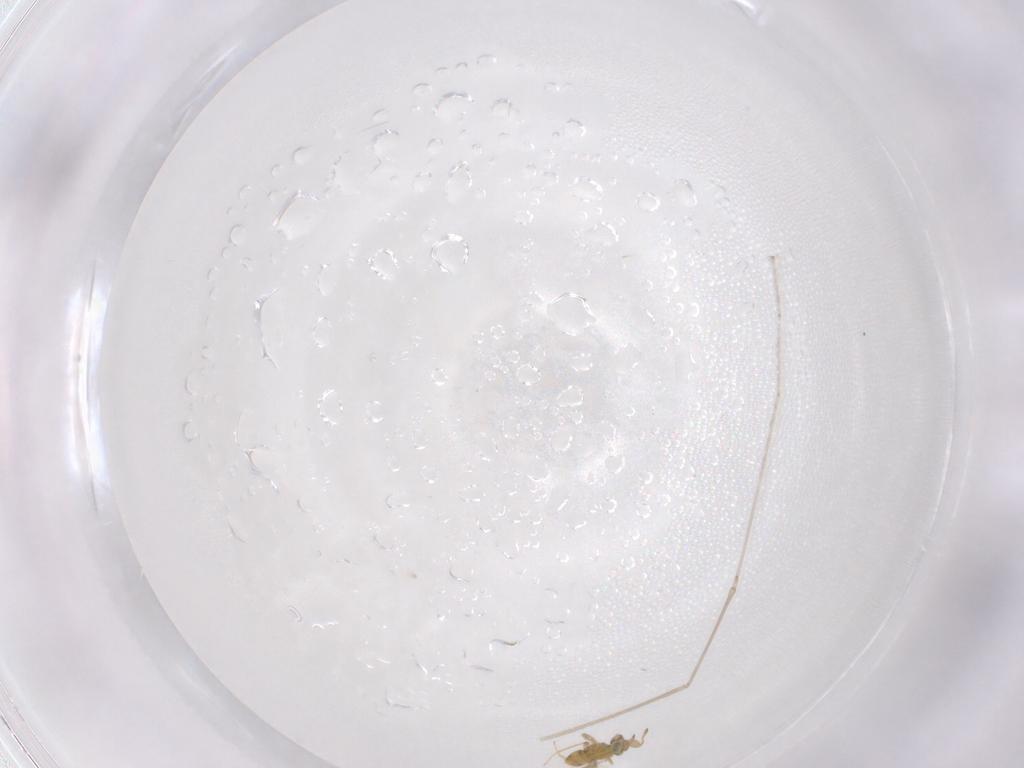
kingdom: Animalia
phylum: Arthropoda
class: Insecta
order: Hymenoptera
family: Aphelinidae
